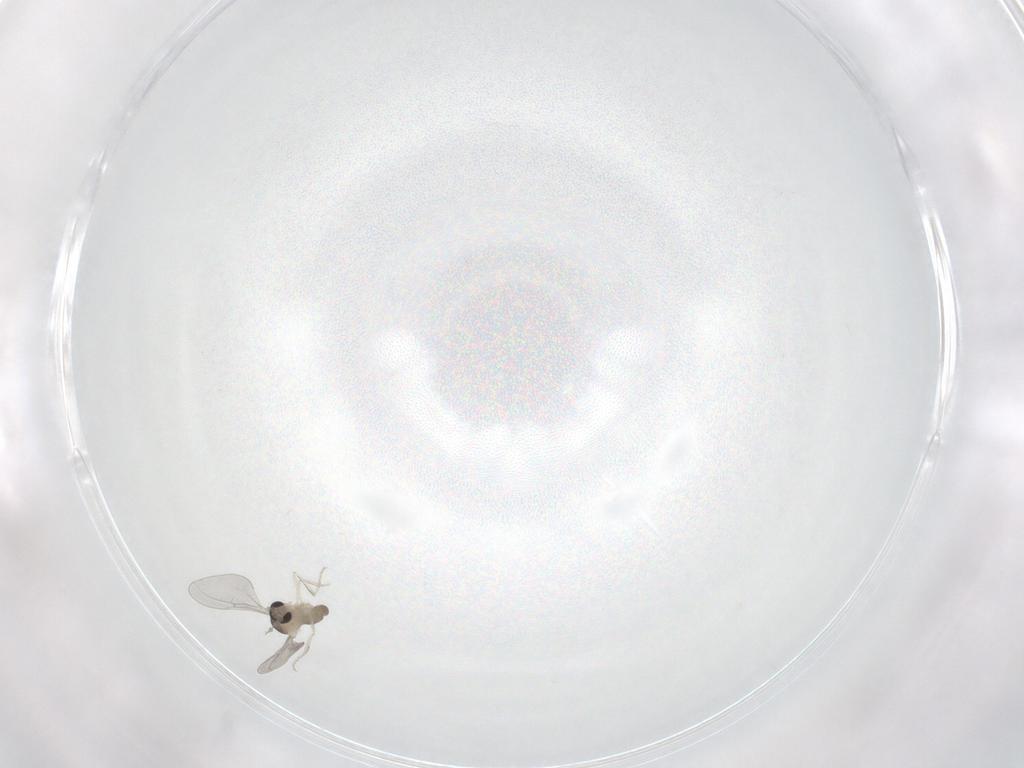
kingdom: Animalia
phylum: Arthropoda
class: Insecta
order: Diptera
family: Cecidomyiidae
